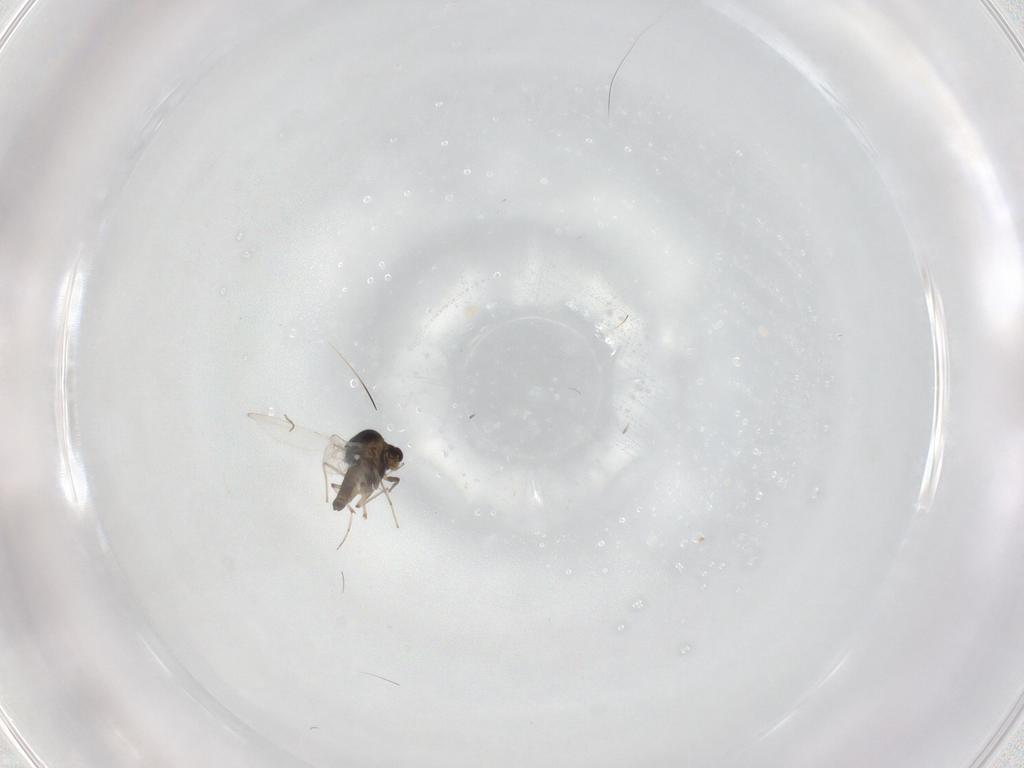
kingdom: Animalia
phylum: Arthropoda
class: Insecta
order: Diptera
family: Chironomidae
